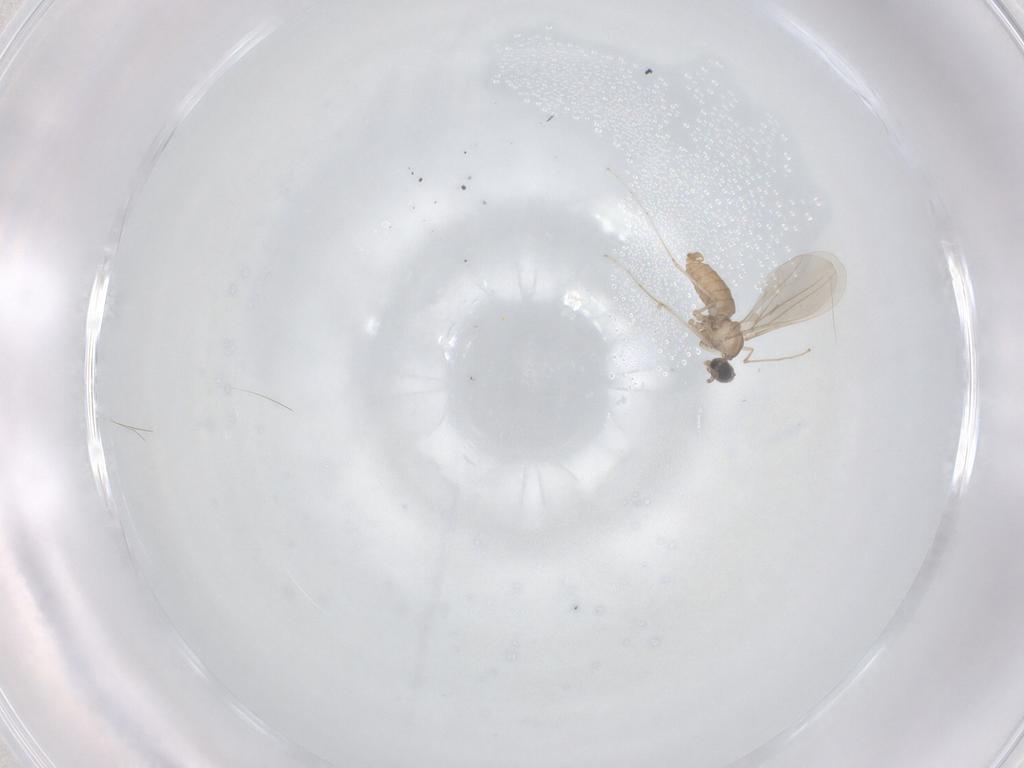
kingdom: Animalia
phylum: Arthropoda
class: Insecta
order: Diptera
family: Cecidomyiidae
